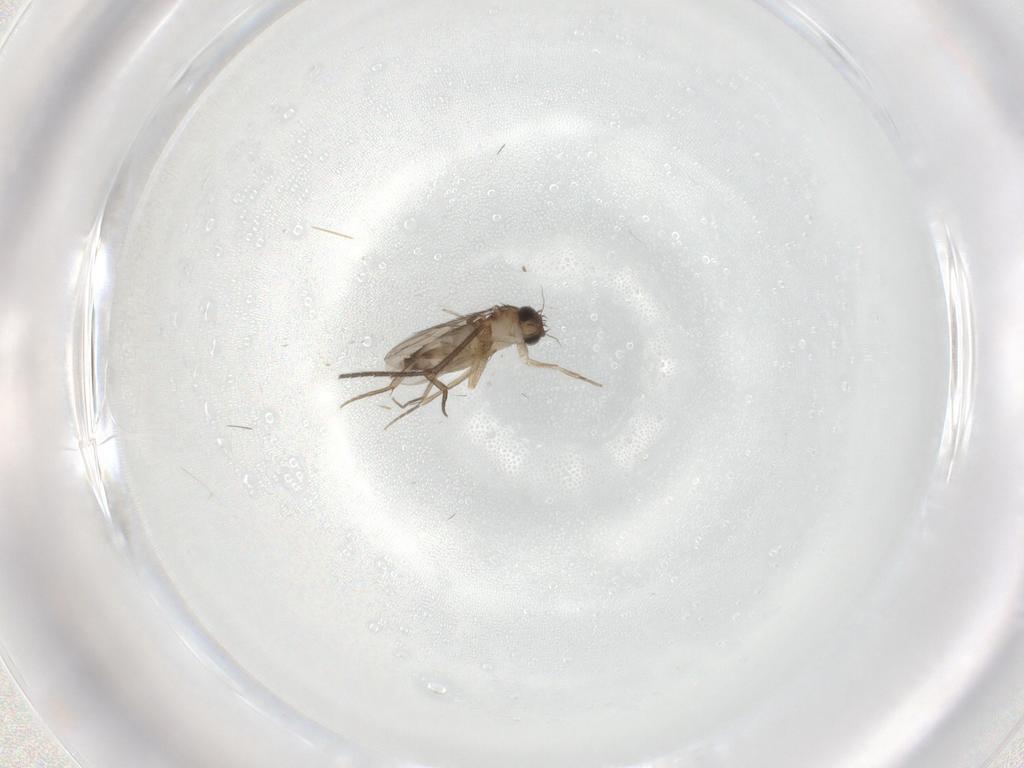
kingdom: Animalia
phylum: Arthropoda
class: Insecta
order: Diptera
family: Phoridae
